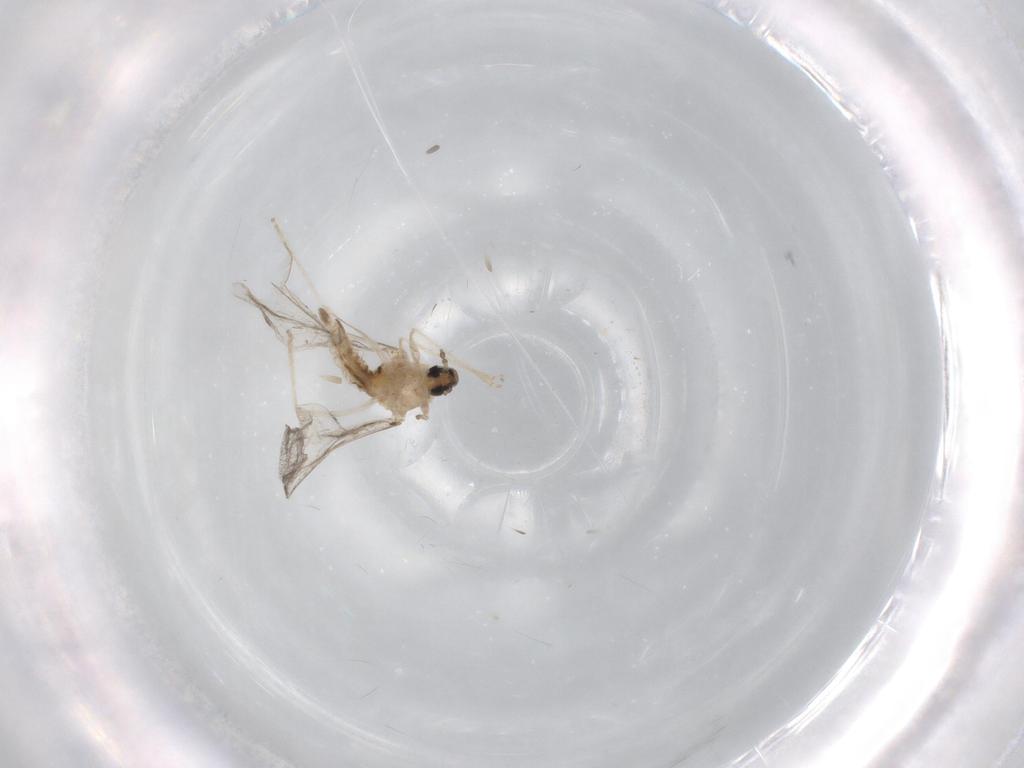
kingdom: Animalia
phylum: Arthropoda
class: Insecta
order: Diptera
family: Cecidomyiidae
